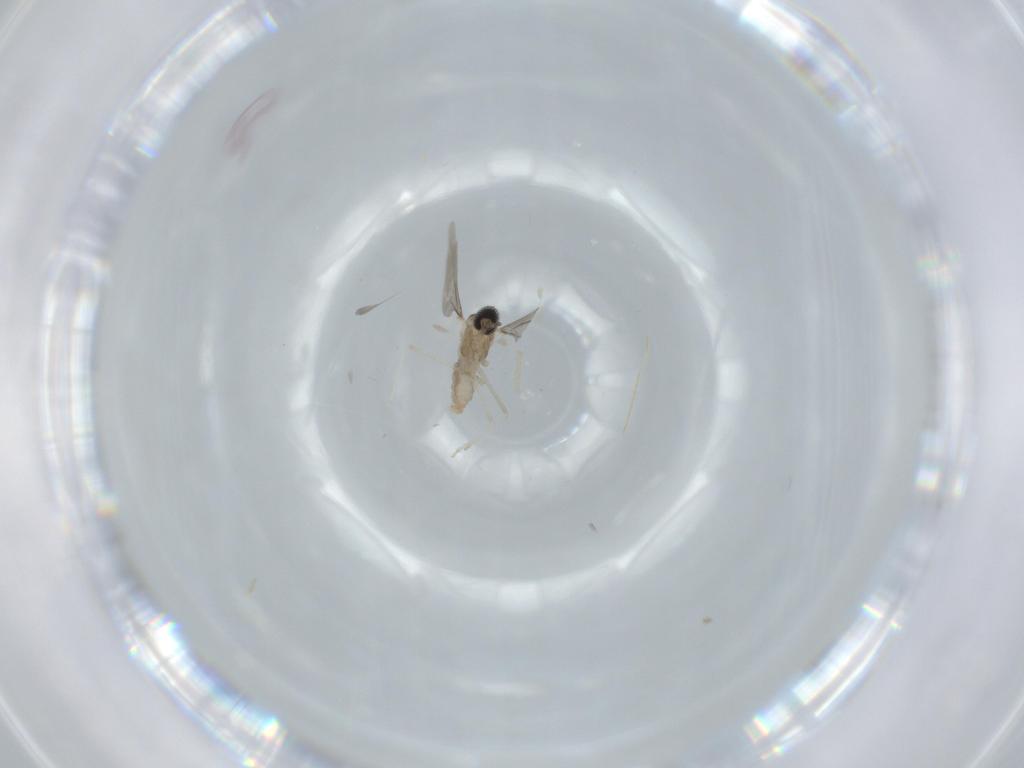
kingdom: Animalia
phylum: Arthropoda
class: Insecta
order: Diptera
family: Cecidomyiidae
